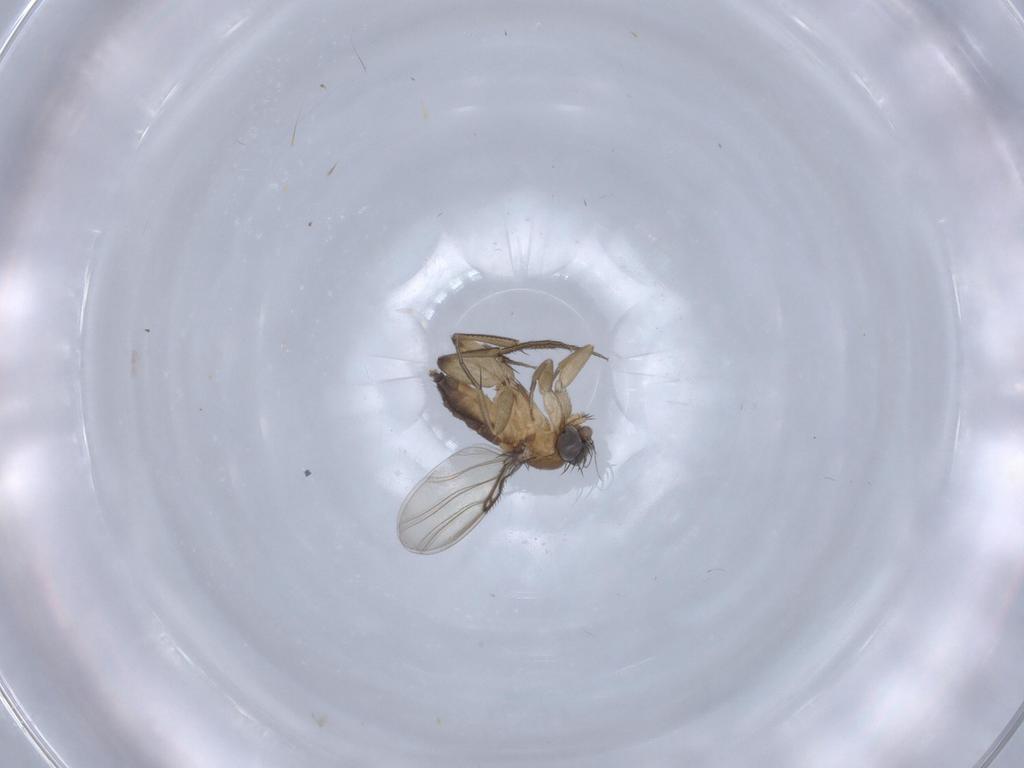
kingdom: Animalia
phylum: Arthropoda
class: Insecta
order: Diptera
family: Phoridae
